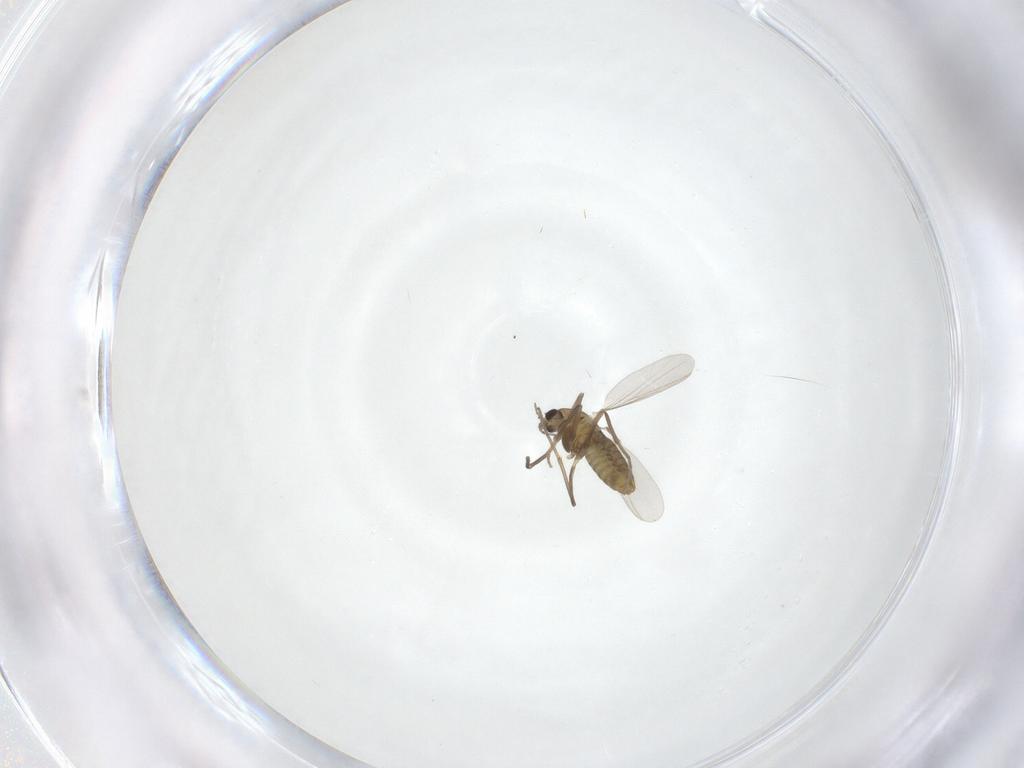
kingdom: Animalia
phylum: Arthropoda
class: Insecta
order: Diptera
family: Chironomidae
